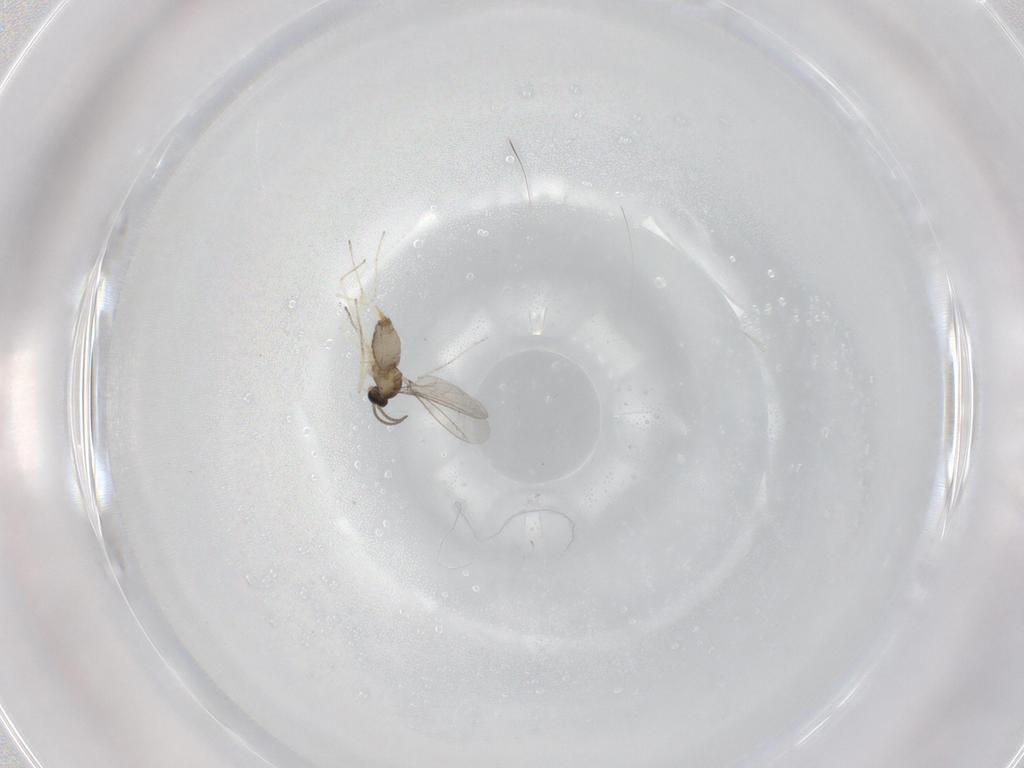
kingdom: Animalia
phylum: Arthropoda
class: Insecta
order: Diptera
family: Cecidomyiidae
